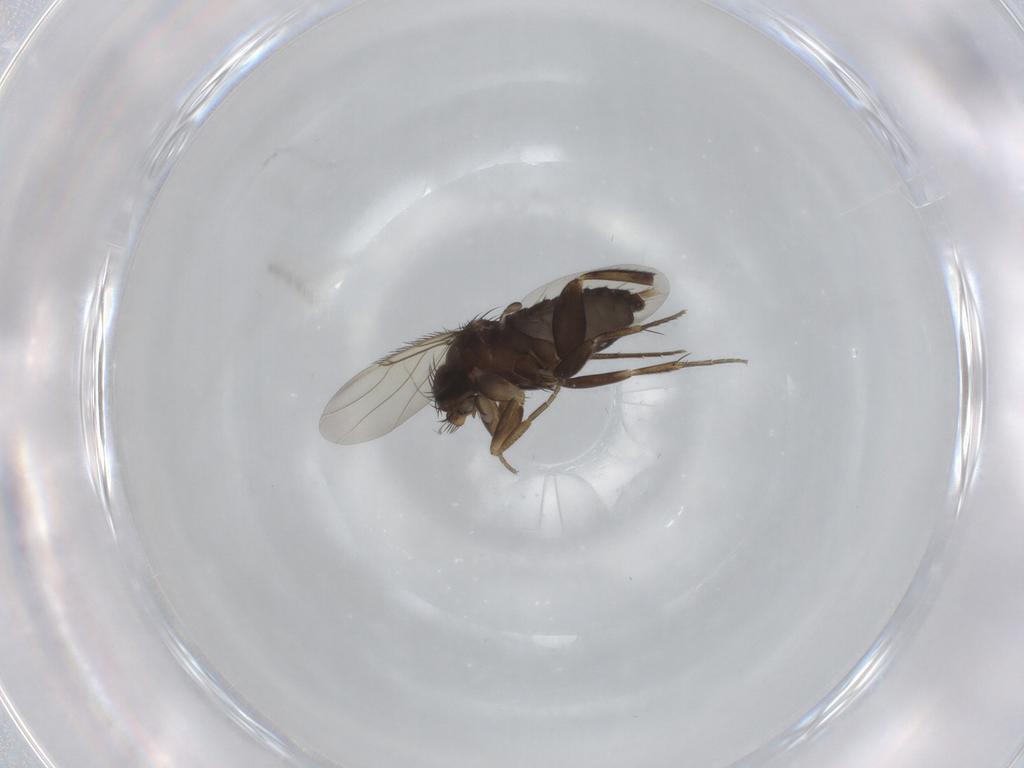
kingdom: Animalia
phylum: Arthropoda
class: Insecta
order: Diptera
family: Phoridae
